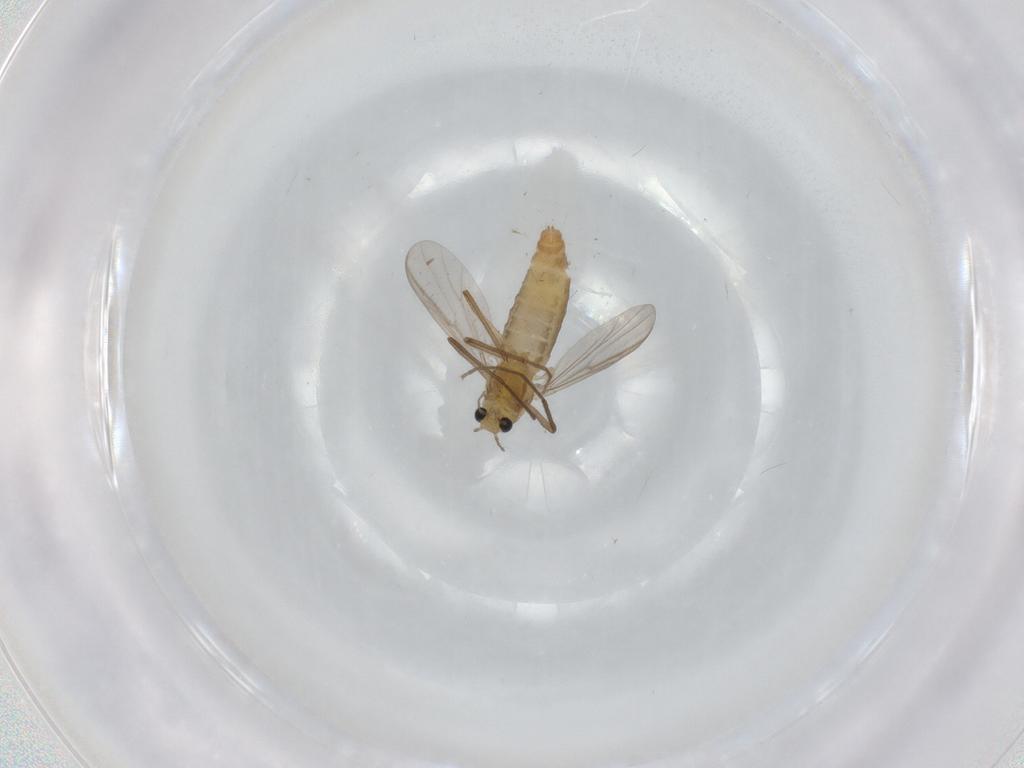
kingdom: Animalia
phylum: Arthropoda
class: Insecta
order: Diptera
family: Chironomidae
